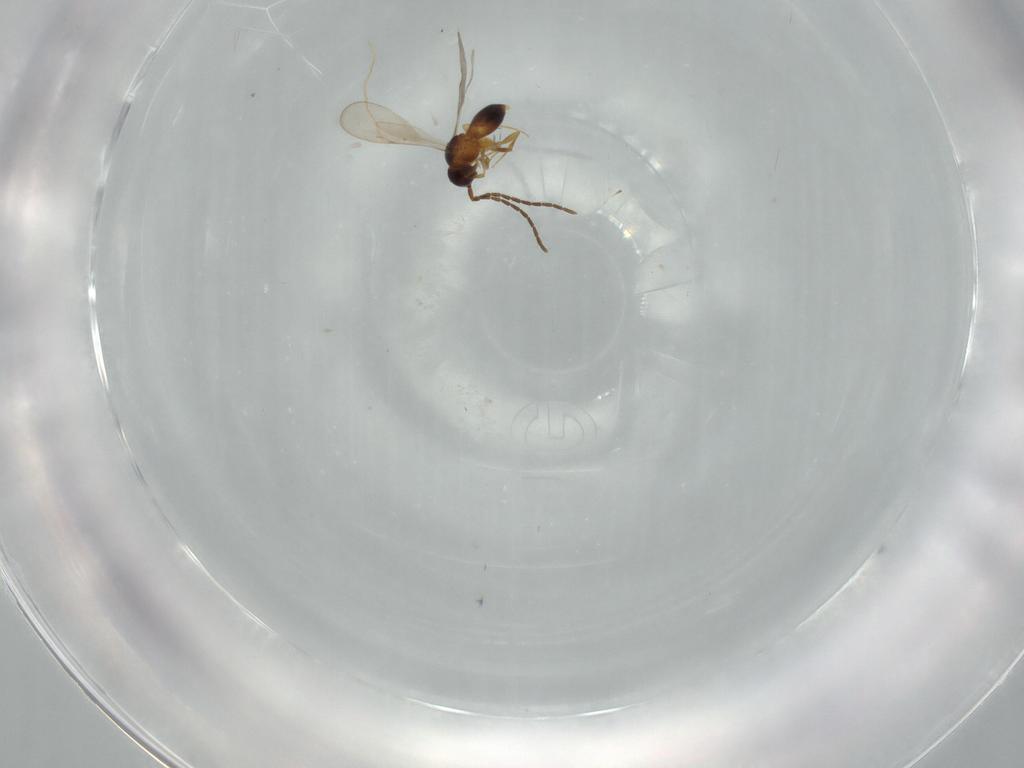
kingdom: Animalia
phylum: Arthropoda
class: Insecta
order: Hymenoptera
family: Megaspilidae
